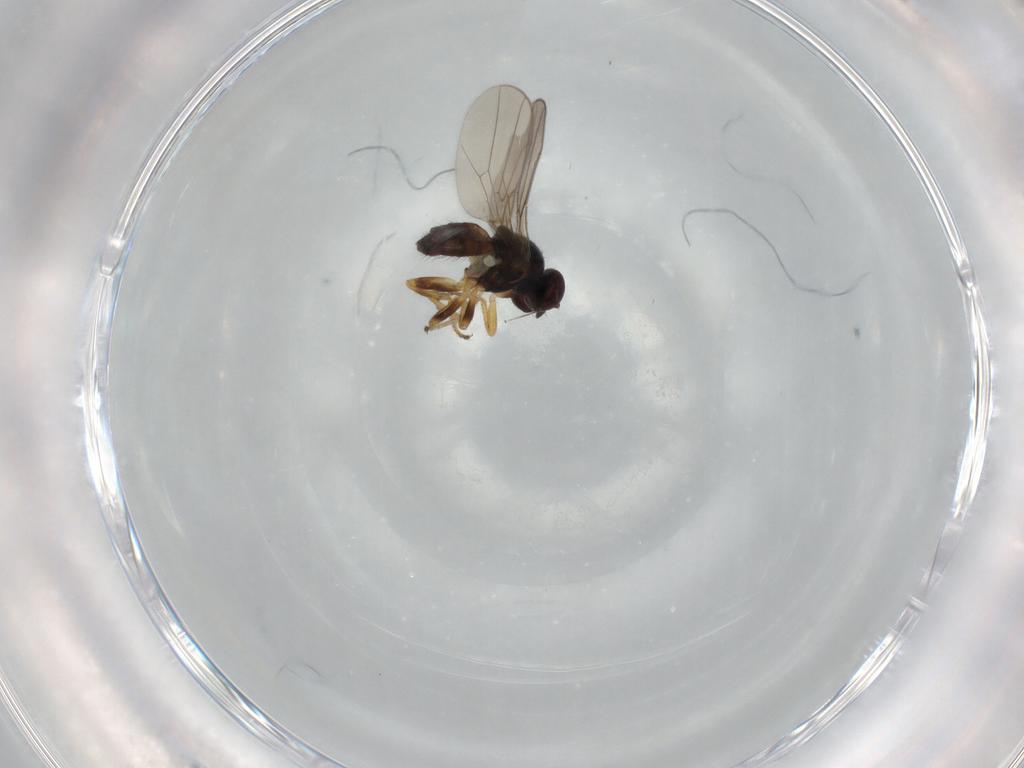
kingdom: Animalia
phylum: Arthropoda
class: Insecta
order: Diptera
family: Chloropidae
